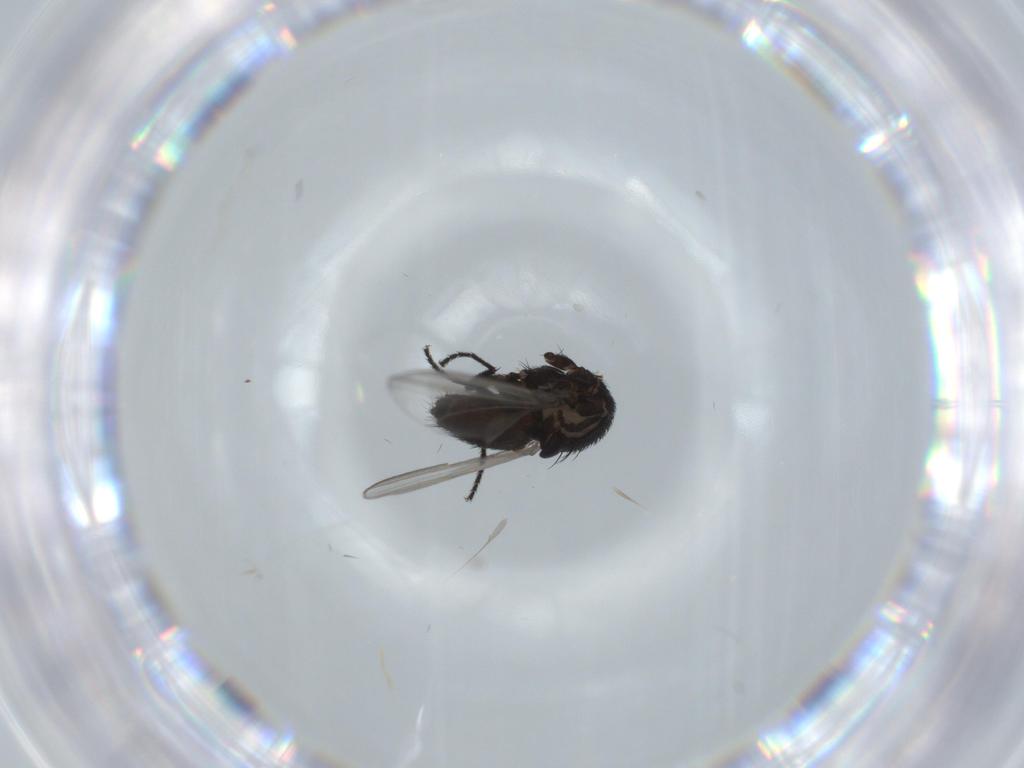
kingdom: Animalia
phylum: Arthropoda
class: Insecta
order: Diptera
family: Milichiidae
